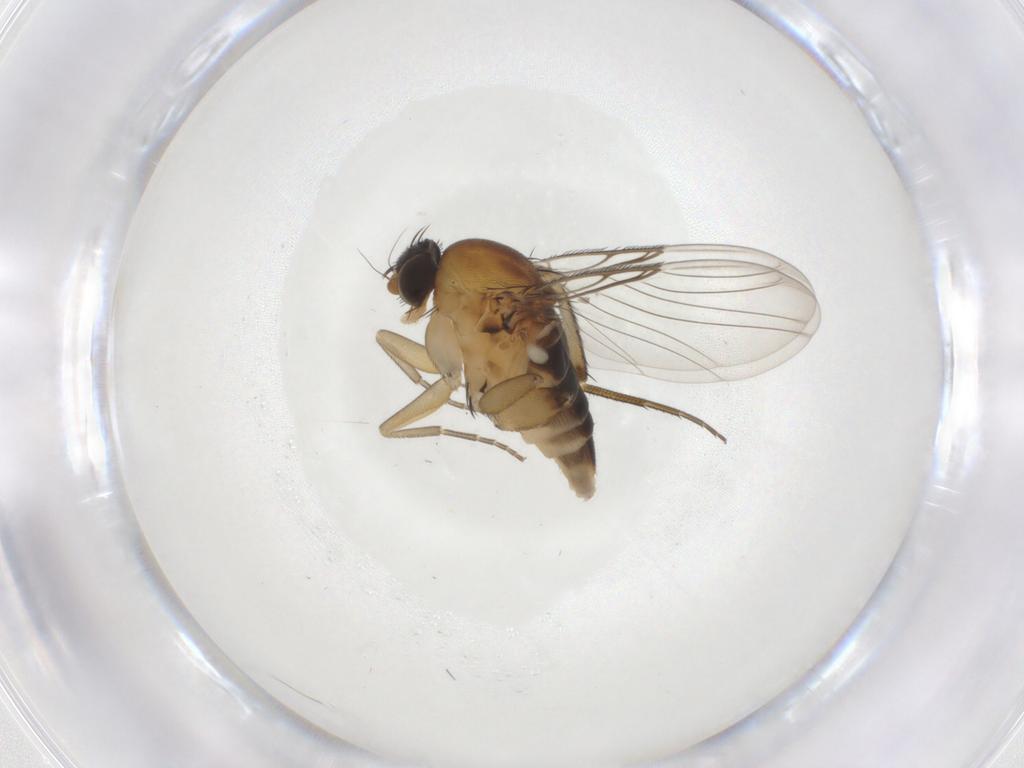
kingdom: Animalia
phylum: Arthropoda
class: Insecta
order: Diptera
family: Phoridae
